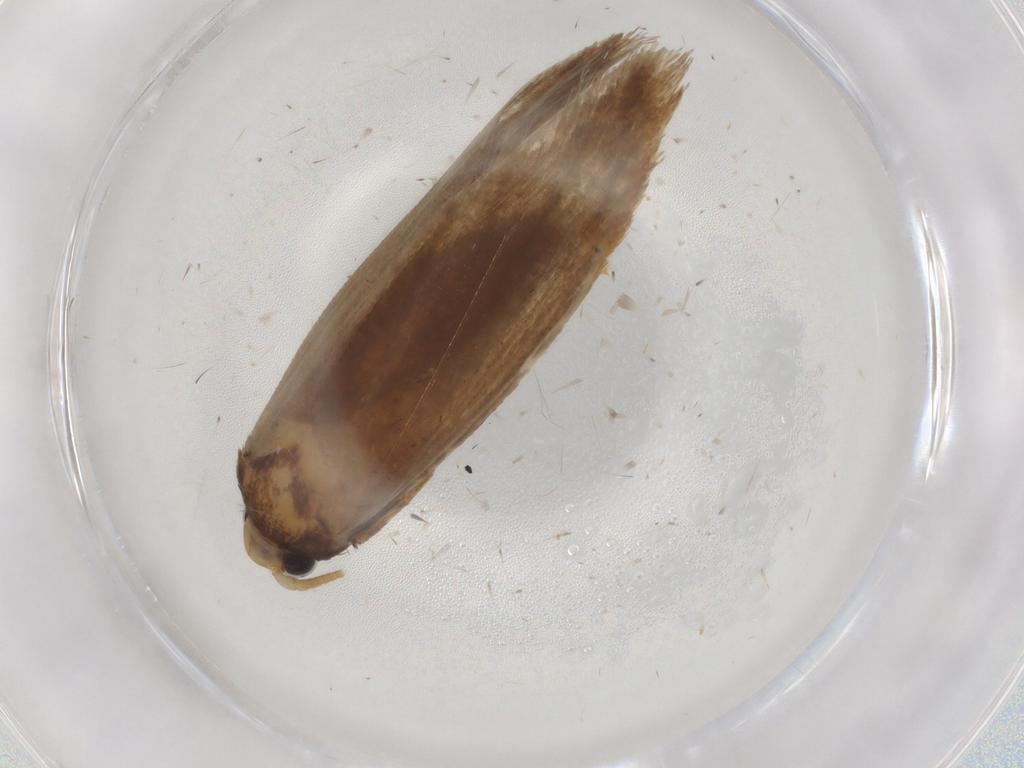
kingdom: Animalia
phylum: Arthropoda
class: Insecta
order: Lepidoptera
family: Tineidae
